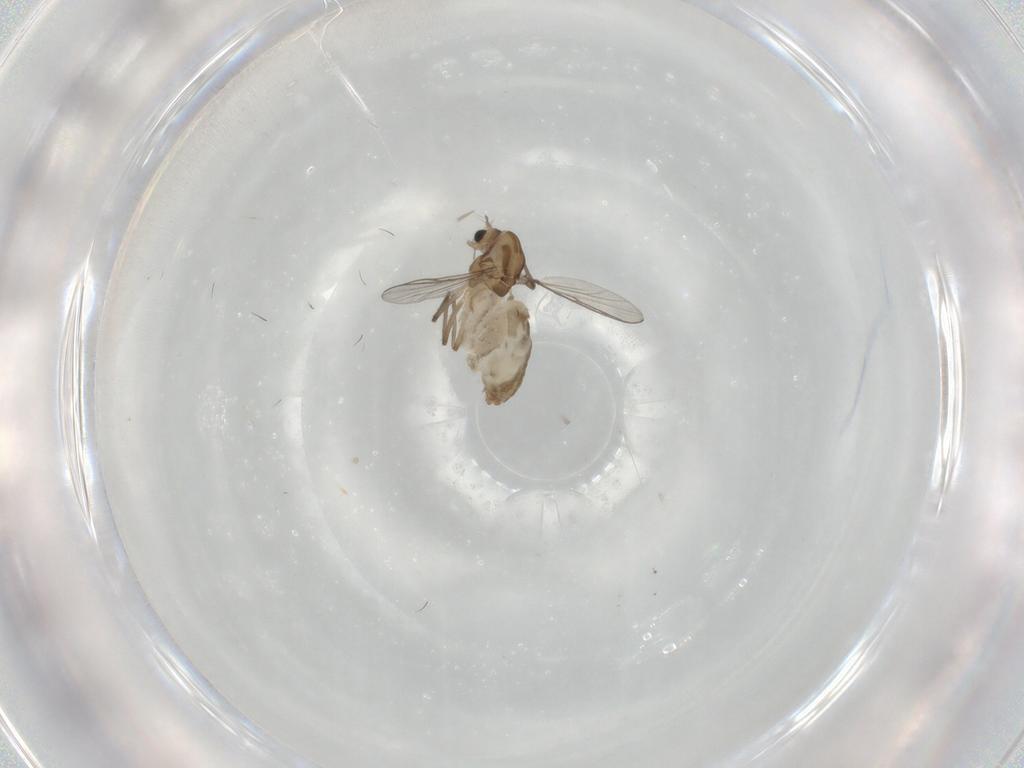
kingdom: Animalia
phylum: Arthropoda
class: Insecta
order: Diptera
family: Chironomidae
